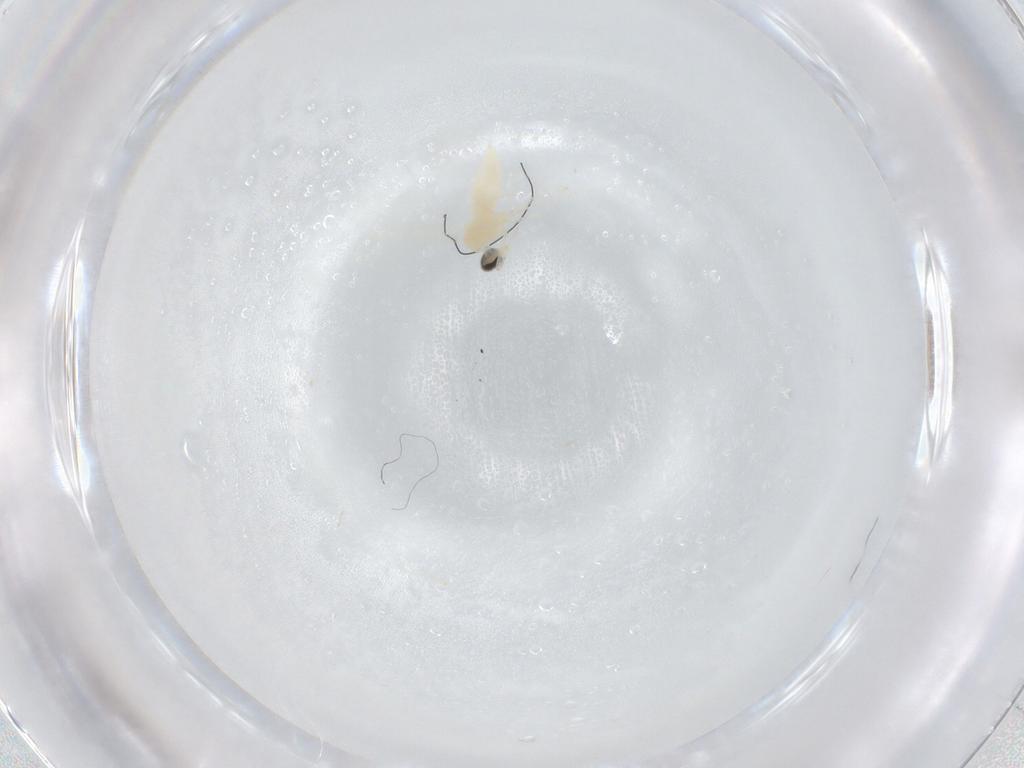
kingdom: Animalia
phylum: Arthropoda
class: Insecta
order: Diptera
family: Cecidomyiidae
